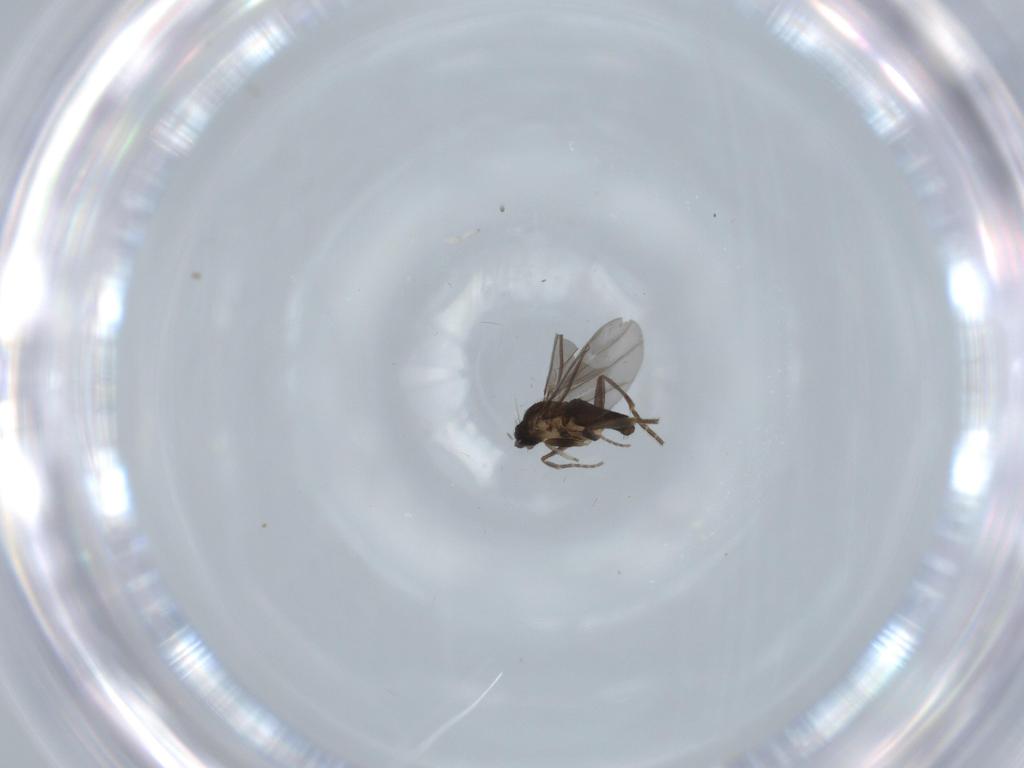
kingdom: Animalia
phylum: Arthropoda
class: Insecta
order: Diptera
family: Phoridae
